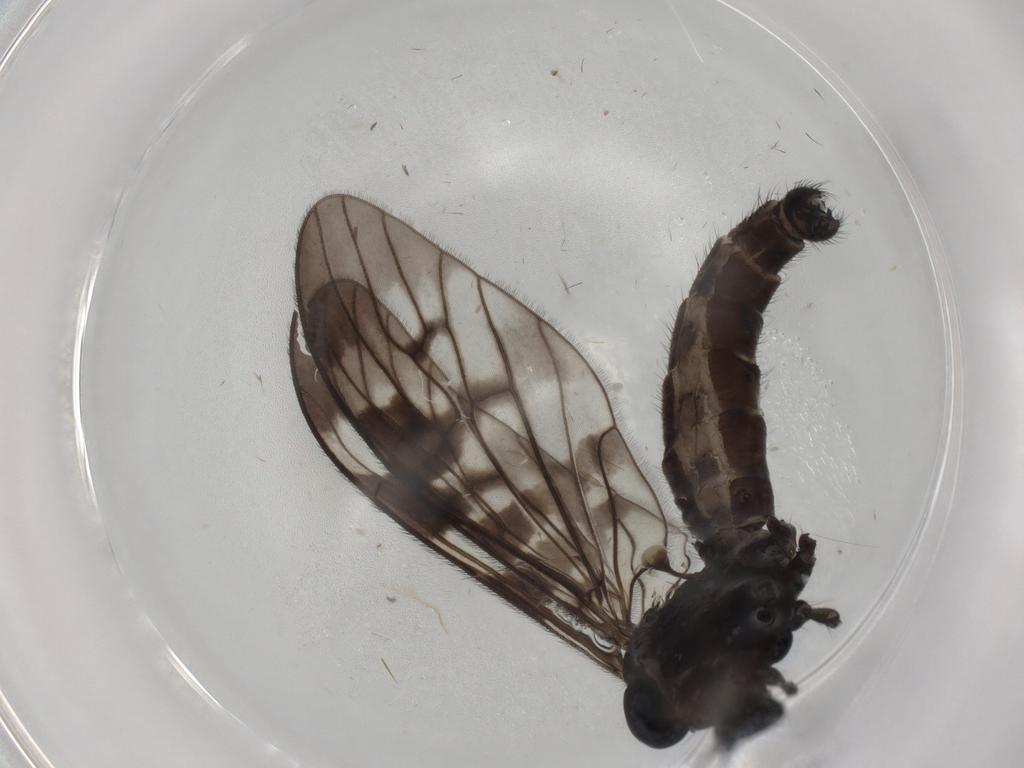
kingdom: Animalia
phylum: Arthropoda
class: Insecta
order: Diptera
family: Limoniidae
